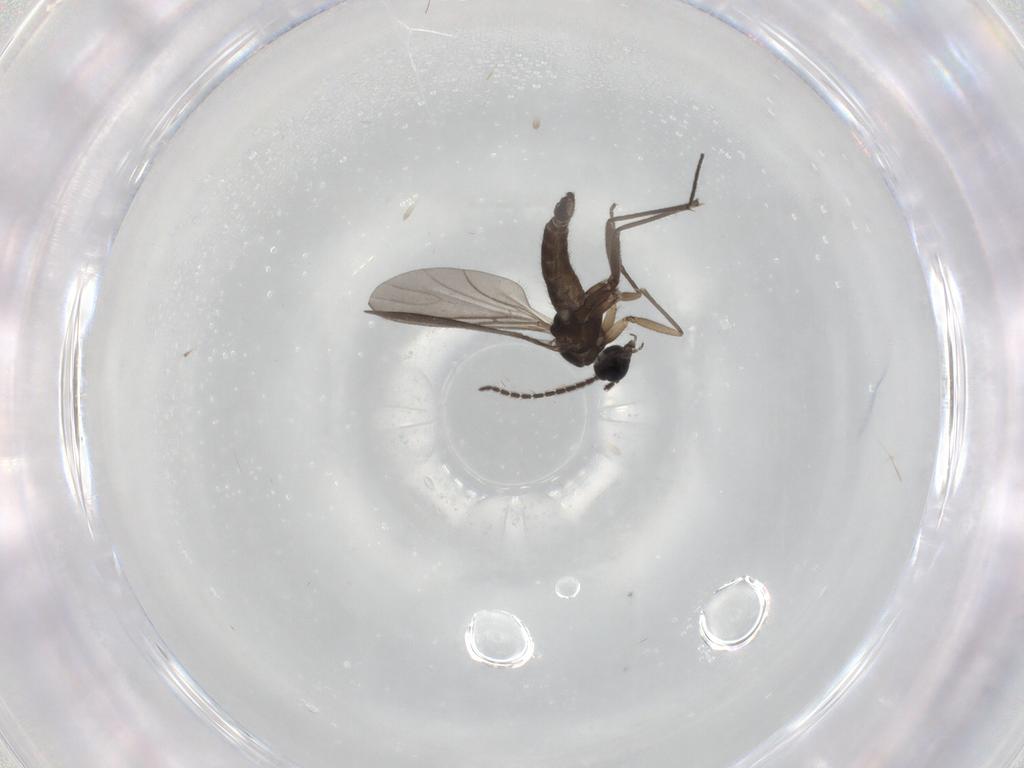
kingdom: Animalia
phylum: Arthropoda
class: Insecta
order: Diptera
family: Sciaridae
